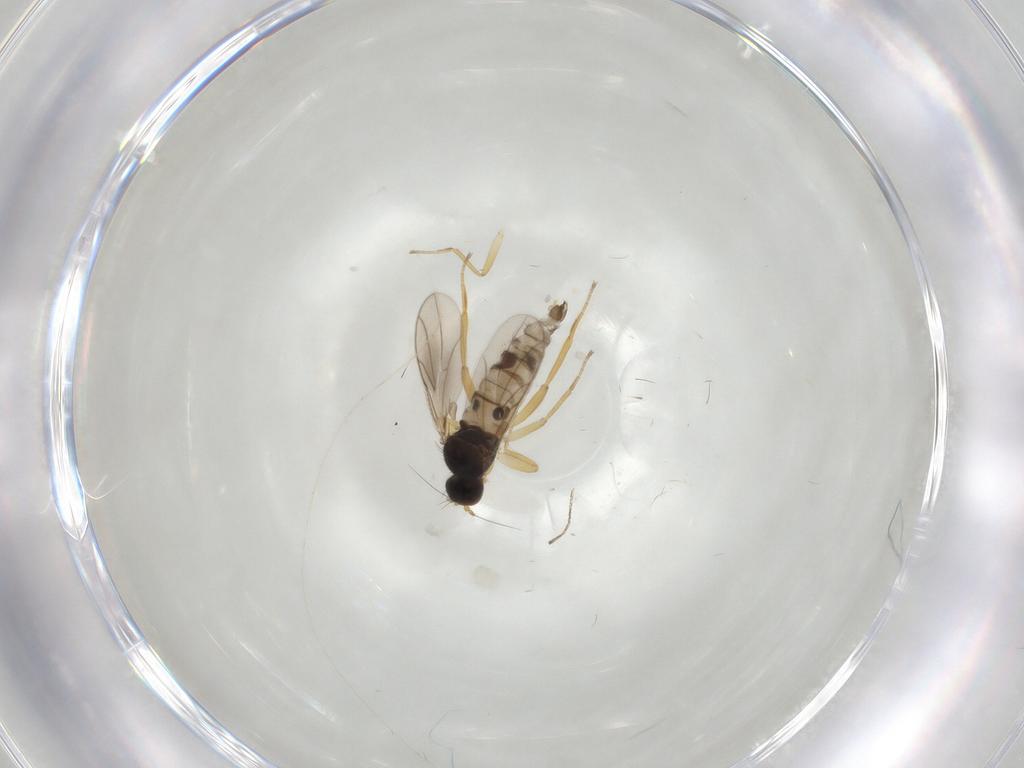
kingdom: Animalia
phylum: Arthropoda
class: Insecta
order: Diptera
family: Hybotidae
